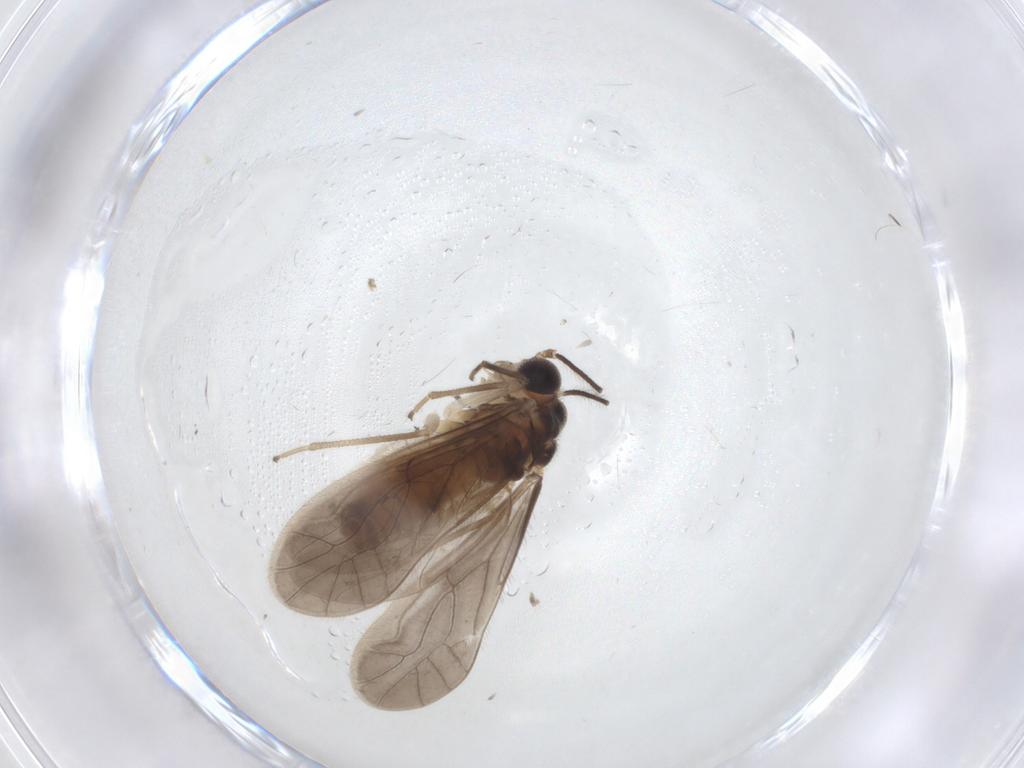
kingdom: Animalia
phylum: Arthropoda
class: Insecta
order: Psocodea
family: Caeciliusidae
